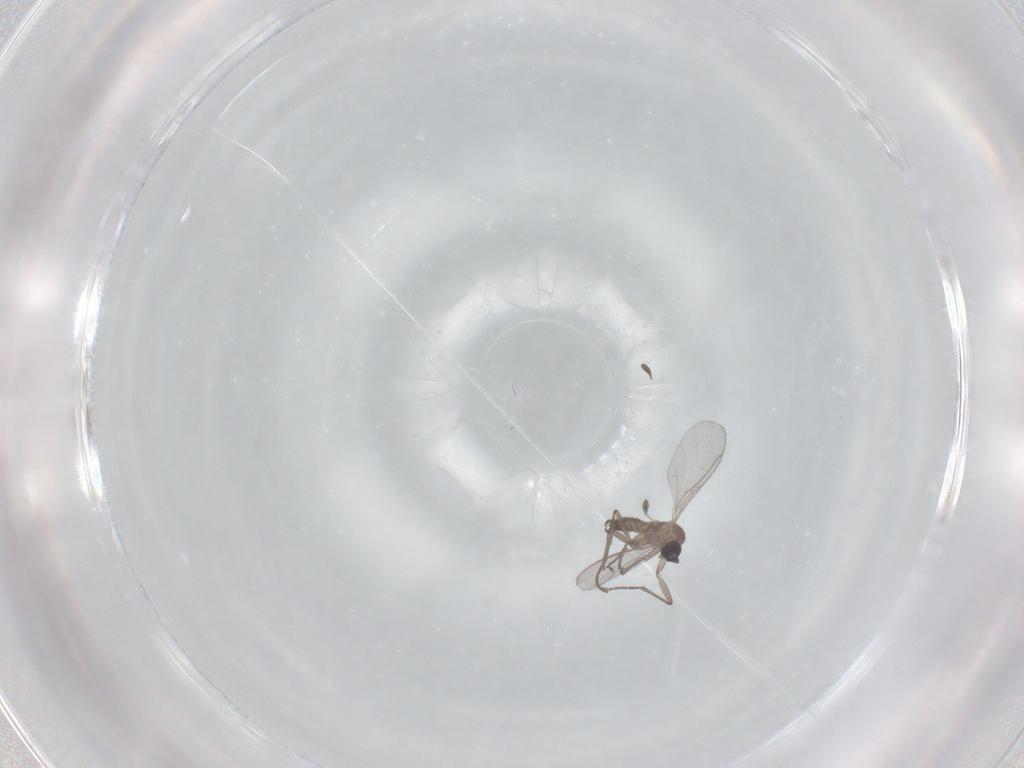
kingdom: Animalia
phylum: Arthropoda
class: Insecta
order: Diptera
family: Sciaridae
